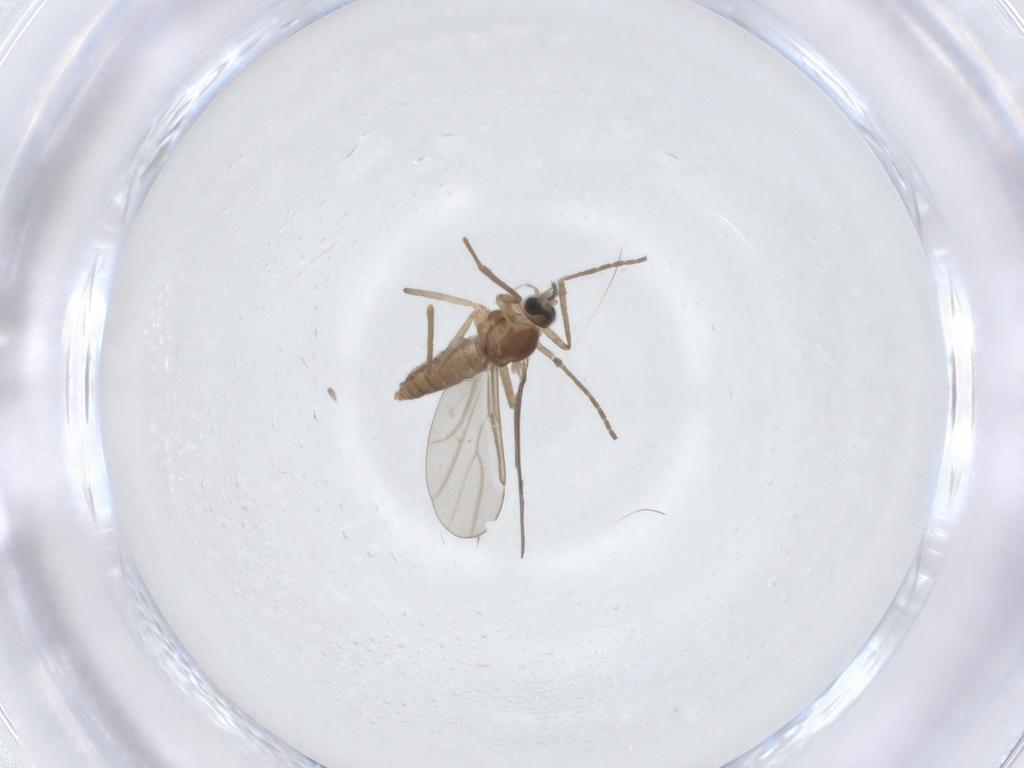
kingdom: Animalia
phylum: Arthropoda
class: Insecta
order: Diptera
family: Cecidomyiidae
